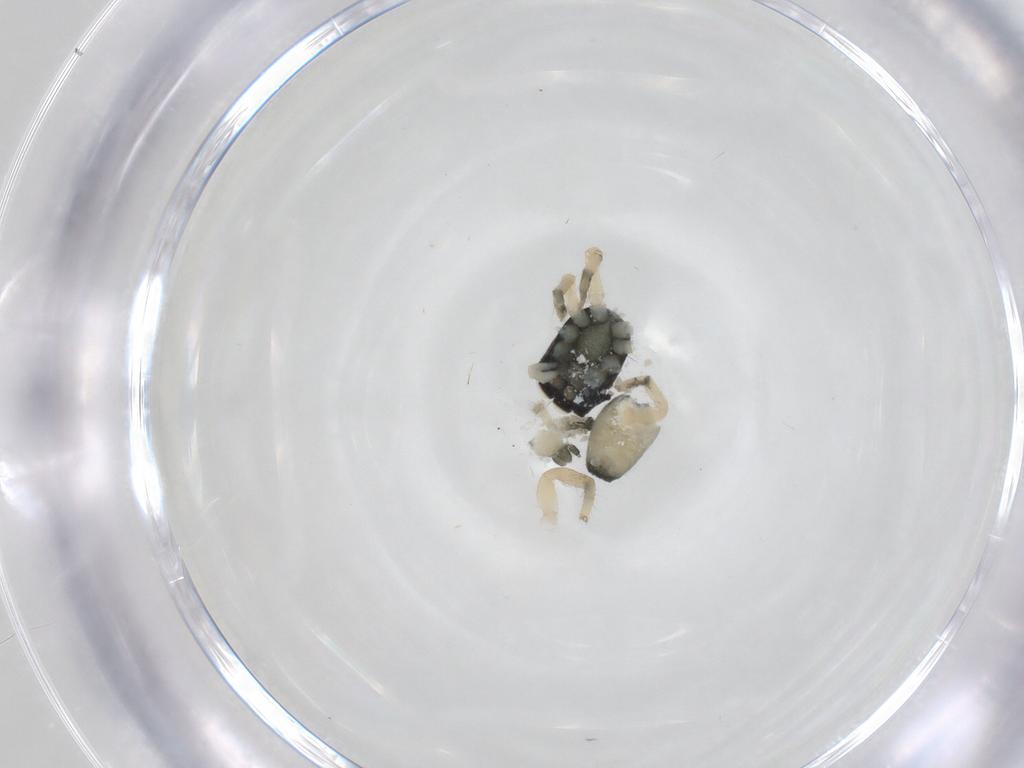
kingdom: Animalia
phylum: Arthropoda
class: Arachnida
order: Araneae
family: Salticidae
